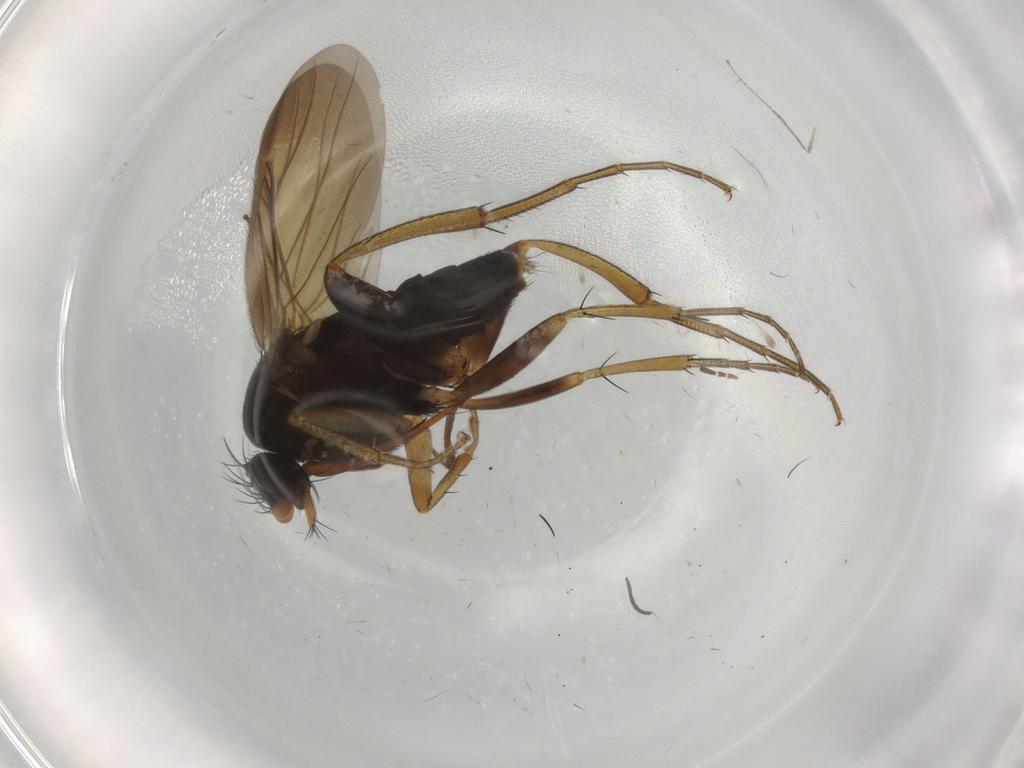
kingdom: Animalia
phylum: Arthropoda
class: Insecta
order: Diptera
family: Phoridae
